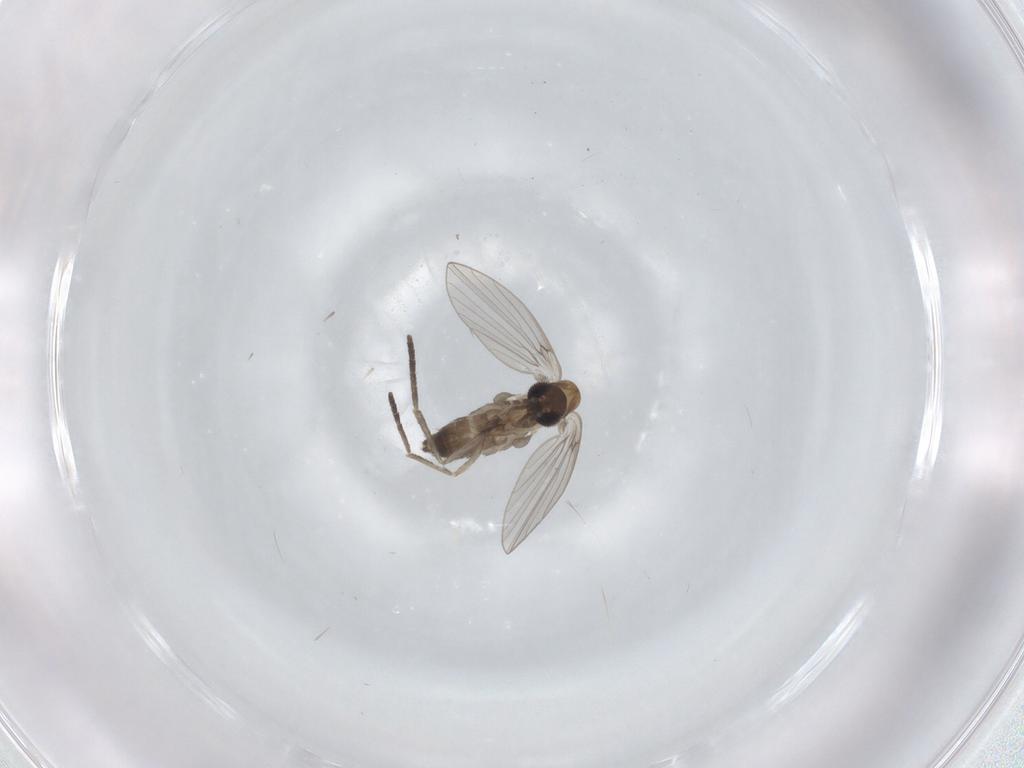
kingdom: Animalia
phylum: Arthropoda
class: Insecta
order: Diptera
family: Psychodidae
